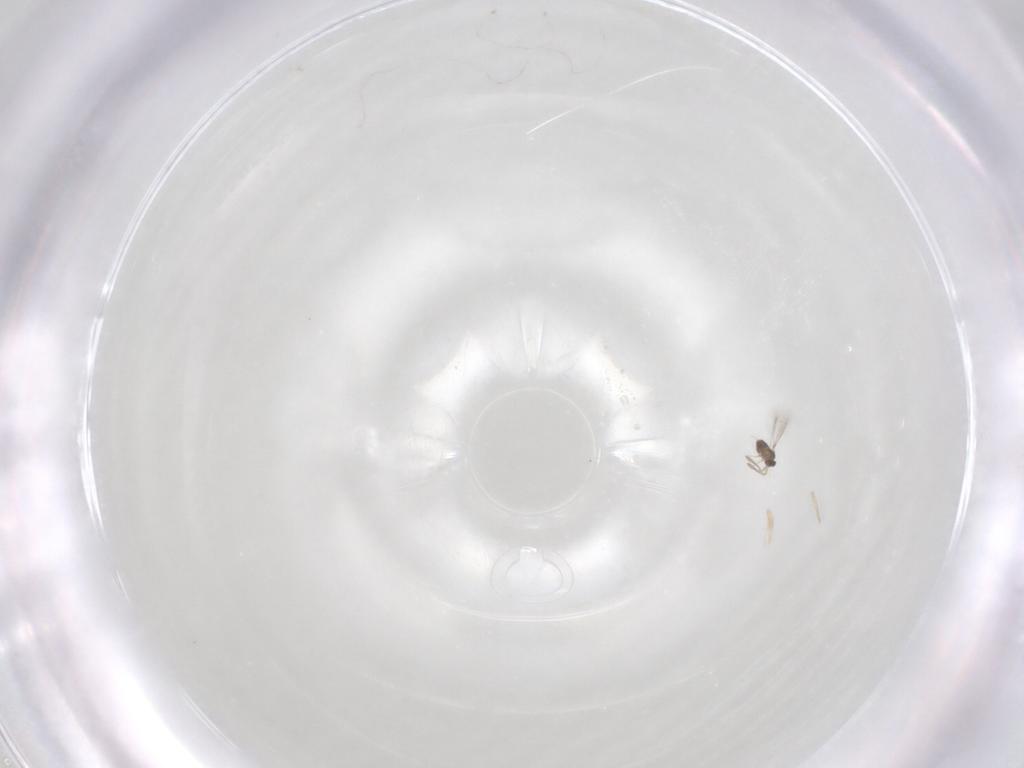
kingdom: Animalia
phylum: Arthropoda
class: Insecta
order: Hymenoptera
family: Mymaridae
